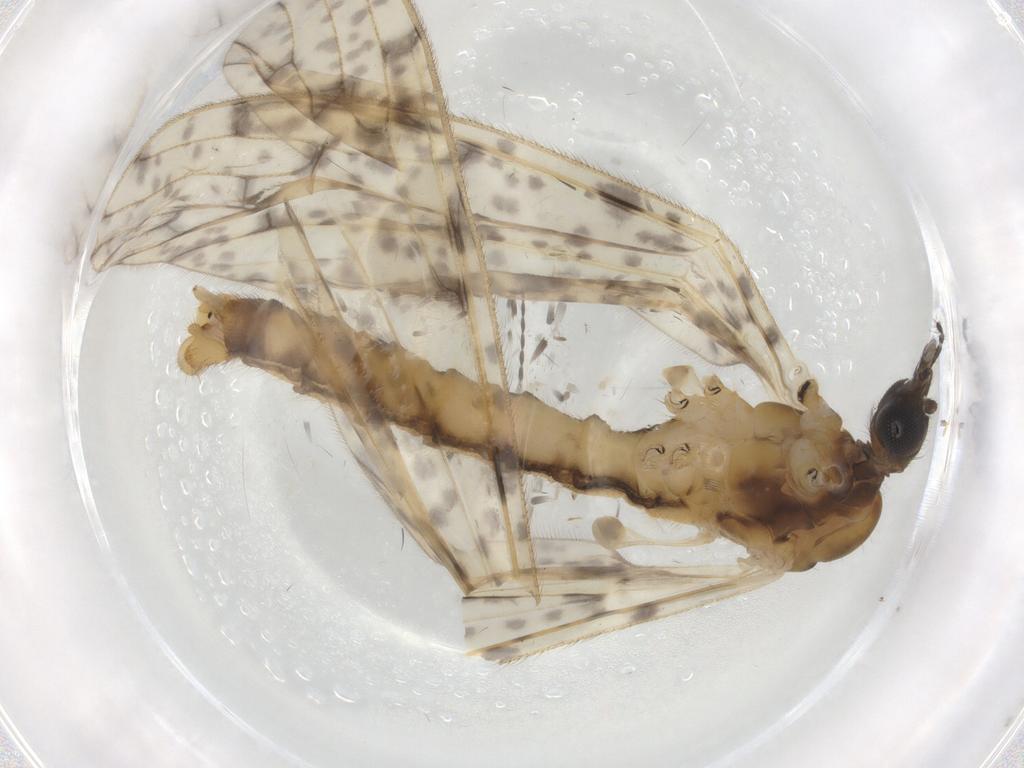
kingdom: Animalia
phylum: Arthropoda
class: Insecta
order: Diptera
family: Limoniidae
